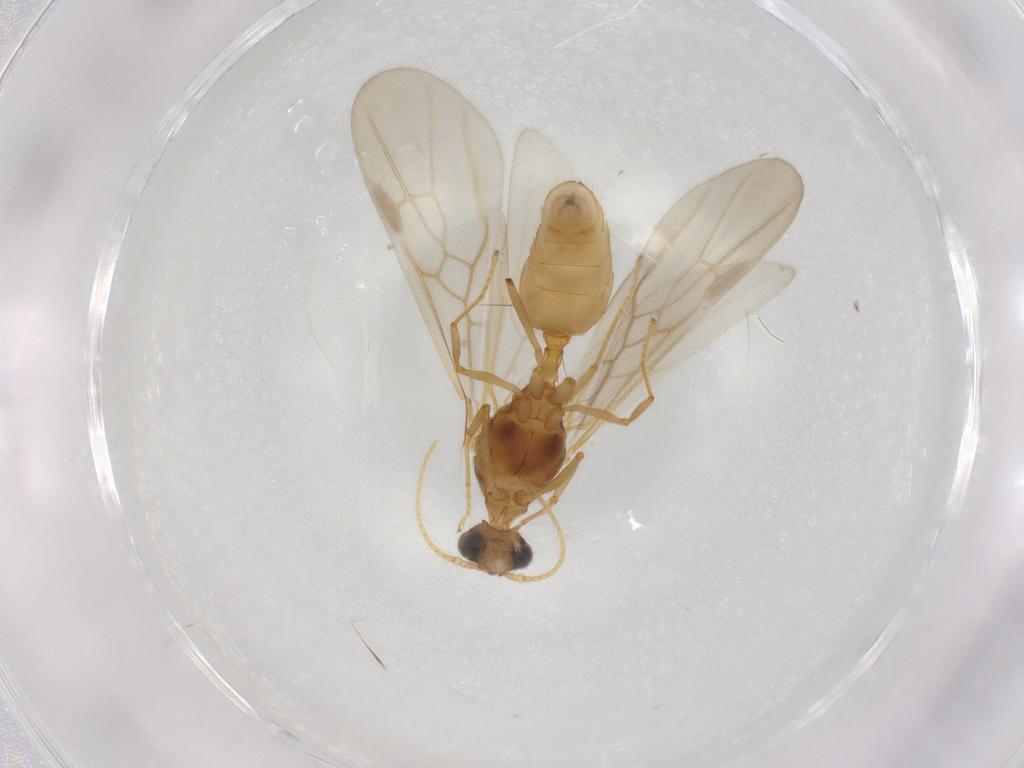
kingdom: Animalia
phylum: Arthropoda
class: Insecta
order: Hymenoptera
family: Formicidae
